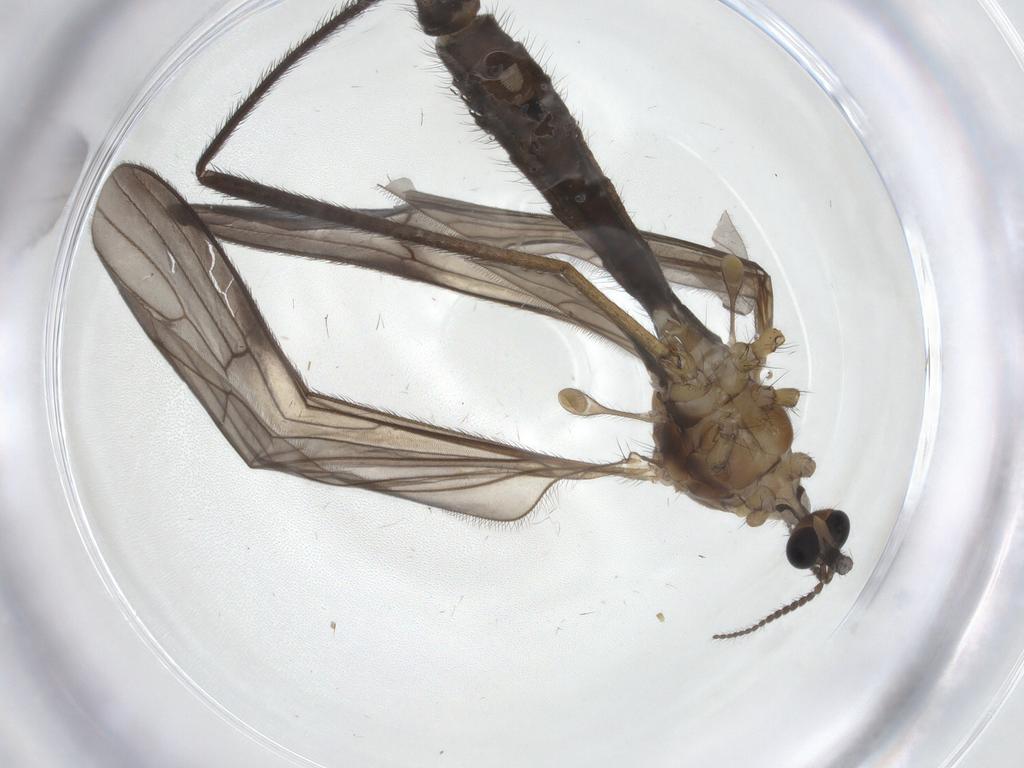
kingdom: Animalia
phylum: Arthropoda
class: Insecta
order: Diptera
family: Limoniidae
